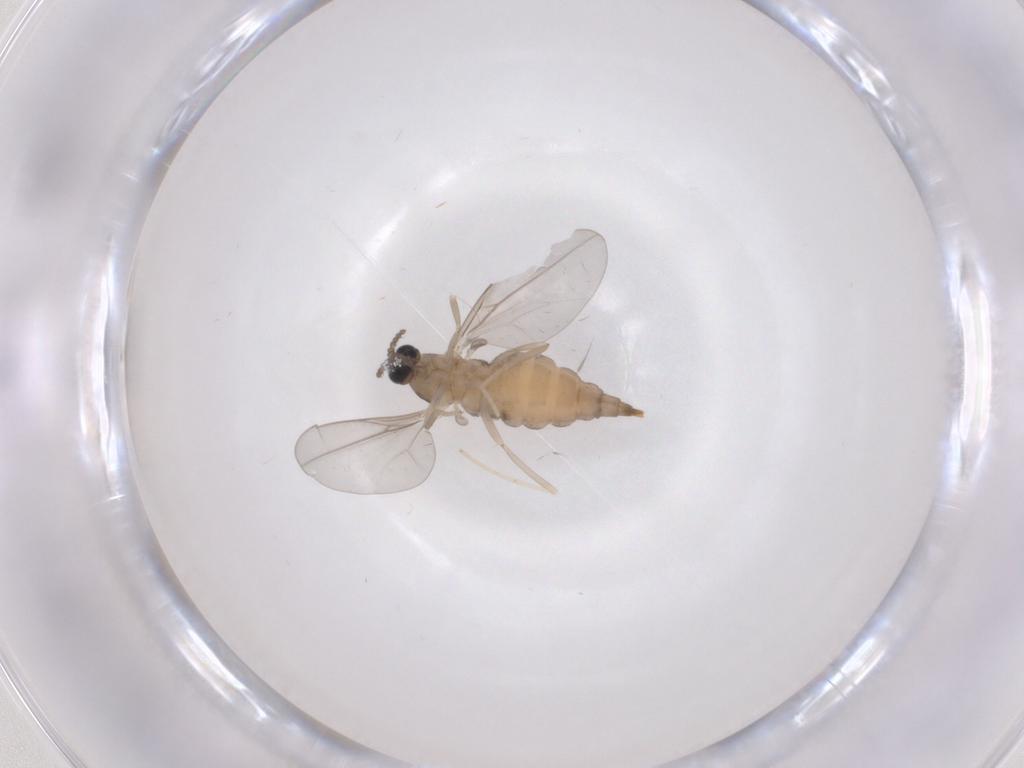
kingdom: Animalia
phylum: Arthropoda
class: Insecta
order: Diptera
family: Cecidomyiidae
